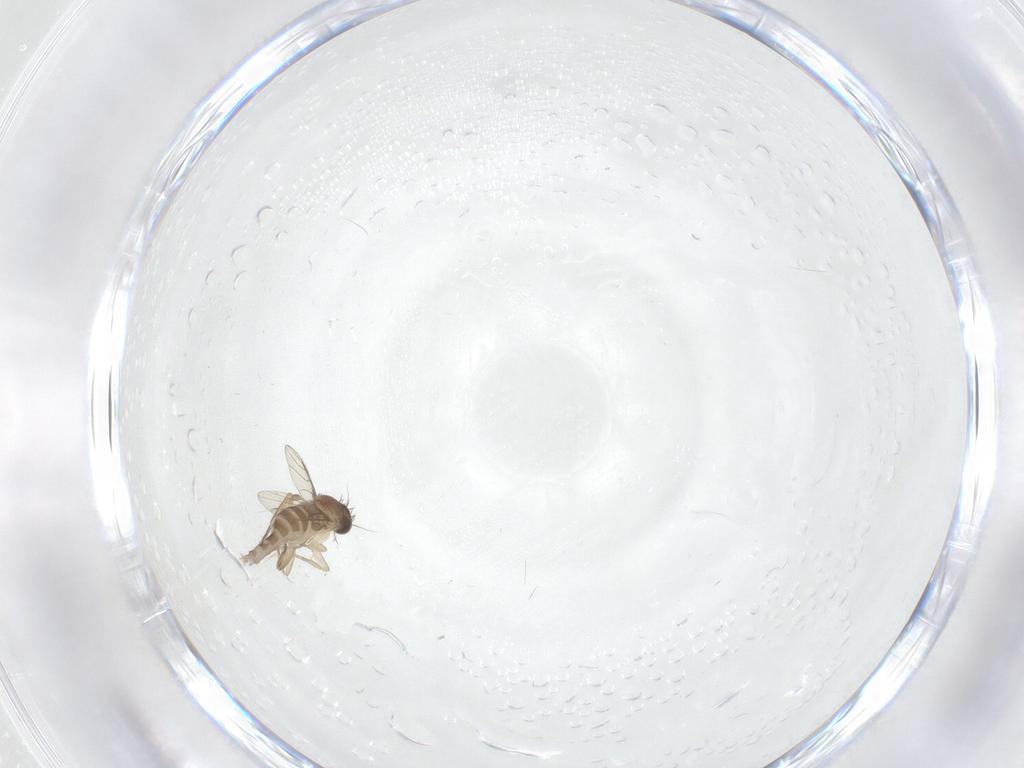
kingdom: Animalia
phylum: Arthropoda
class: Insecta
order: Diptera
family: Phoridae
